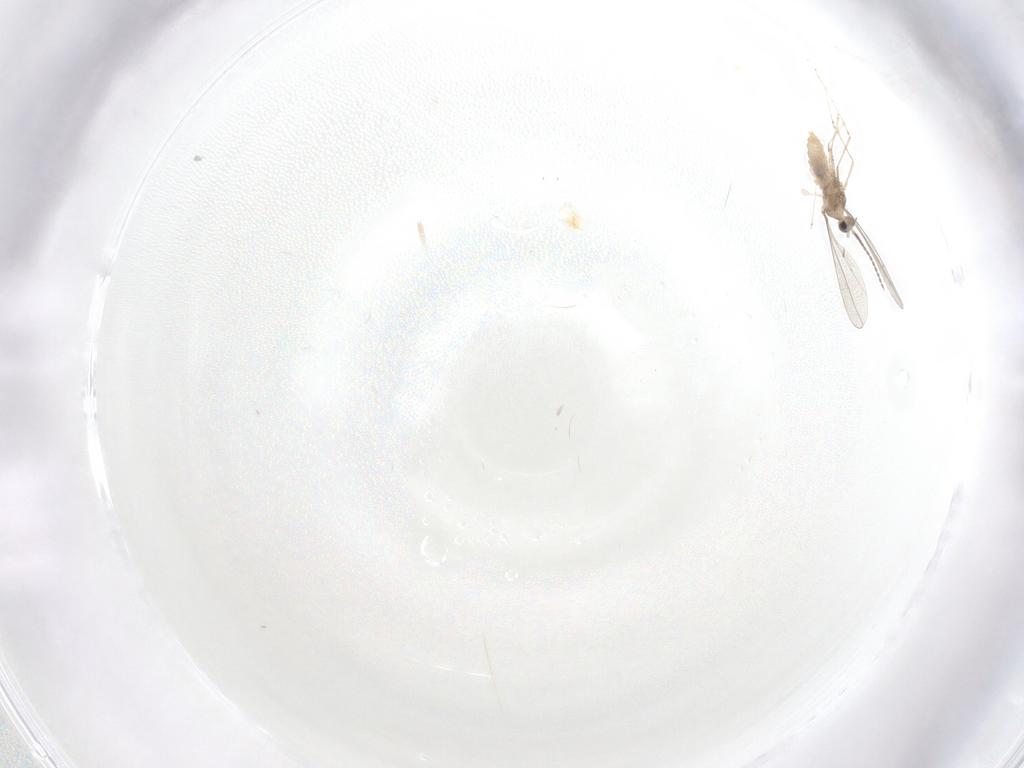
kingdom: Animalia
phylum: Arthropoda
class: Insecta
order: Diptera
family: Cecidomyiidae
